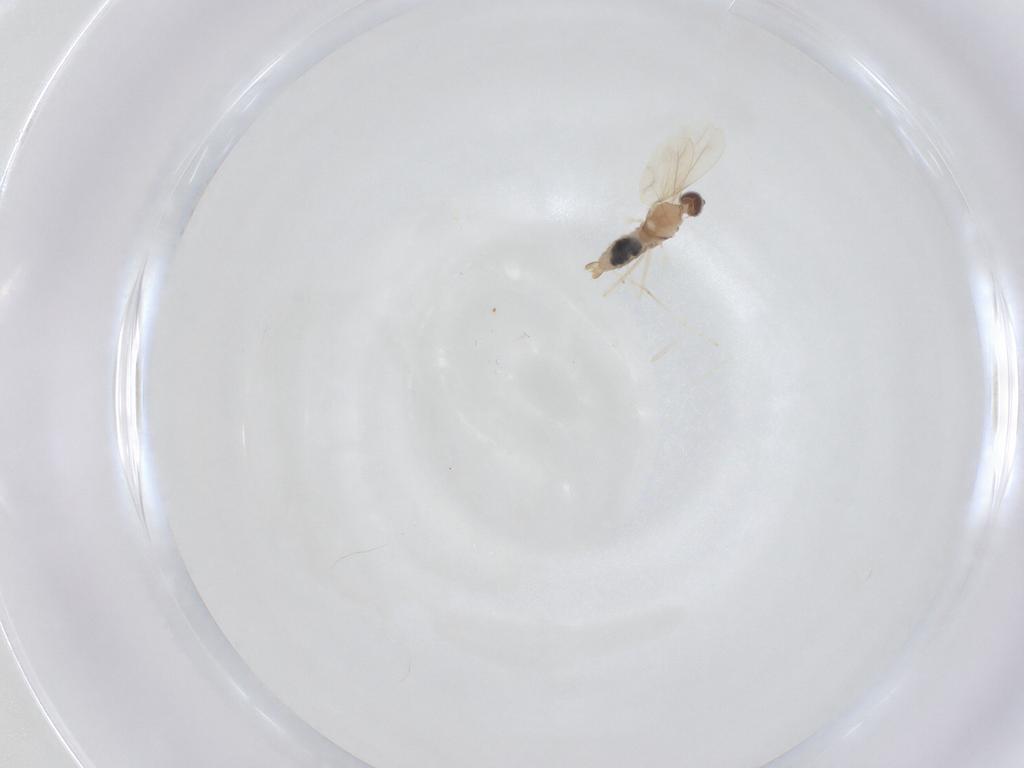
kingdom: Animalia
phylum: Arthropoda
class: Insecta
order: Diptera
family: Cecidomyiidae
